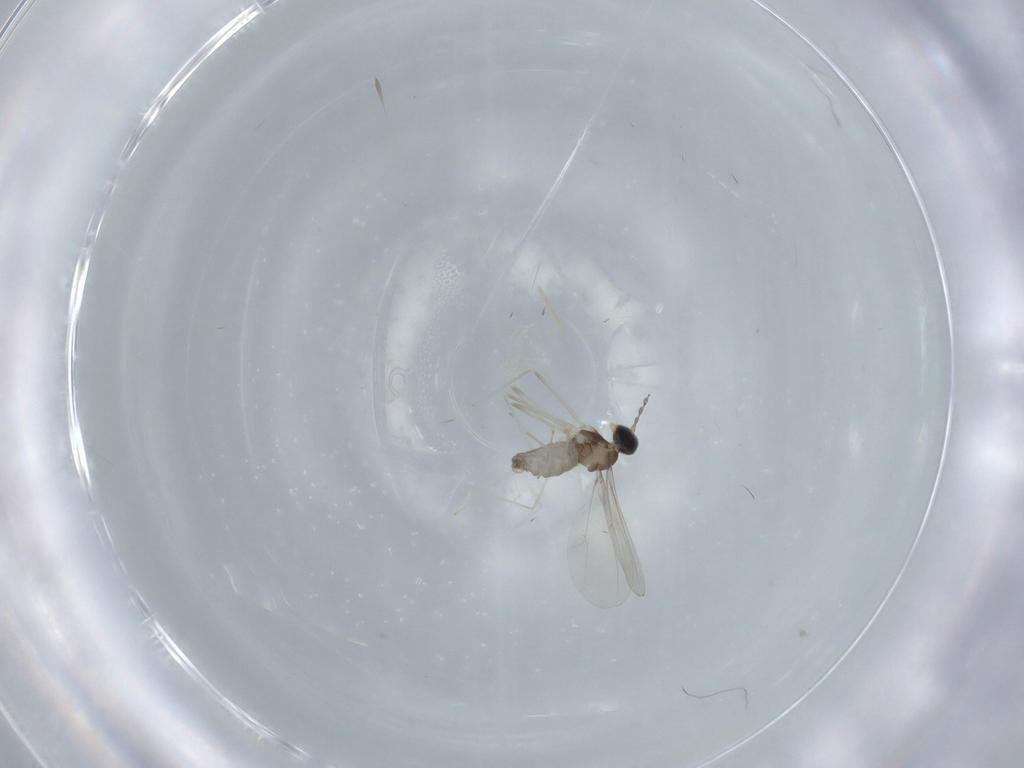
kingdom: Animalia
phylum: Arthropoda
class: Insecta
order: Diptera
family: Cecidomyiidae
